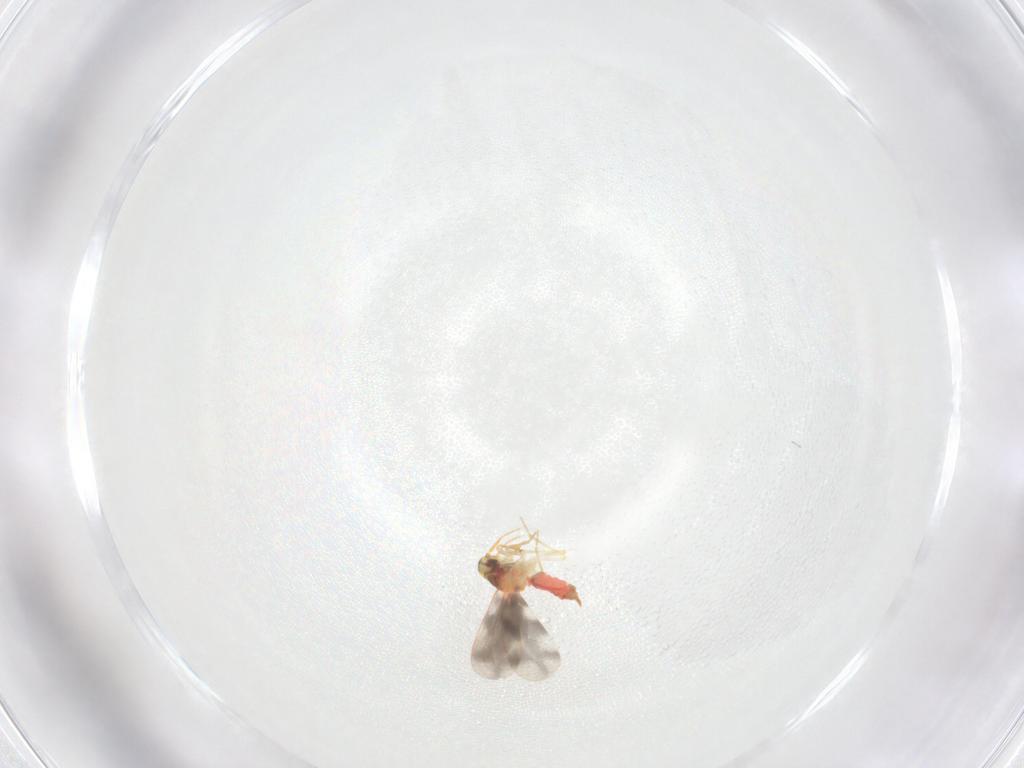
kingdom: Animalia
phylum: Arthropoda
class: Insecta
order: Hemiptera
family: Aleyrodidae
